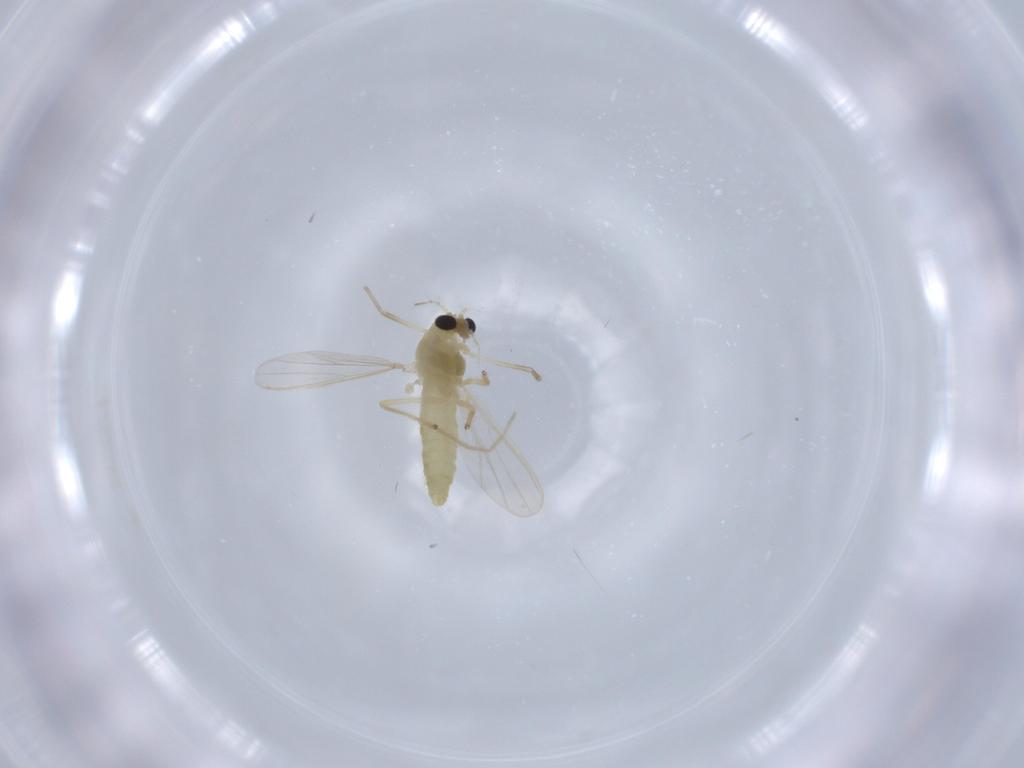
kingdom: Animalia
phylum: Arthropoda
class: Insecta
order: Diptera
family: Chironomidae
